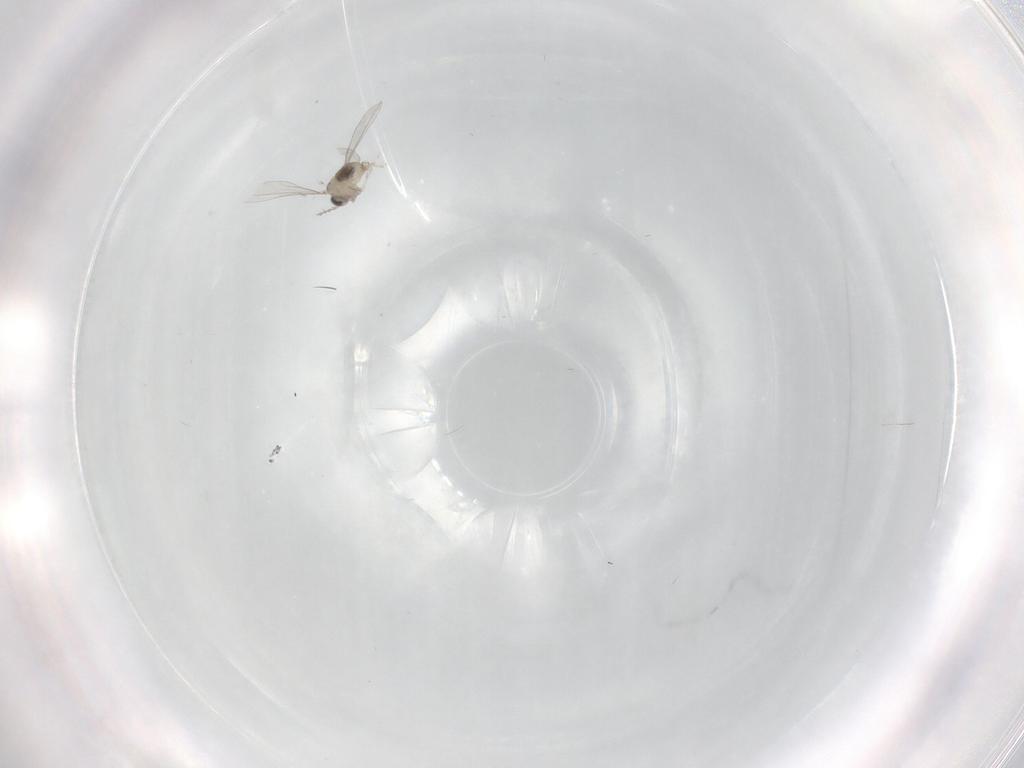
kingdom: Animalia
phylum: Arthropoda
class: Insecta
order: Diptera
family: Cecidomyiidae
